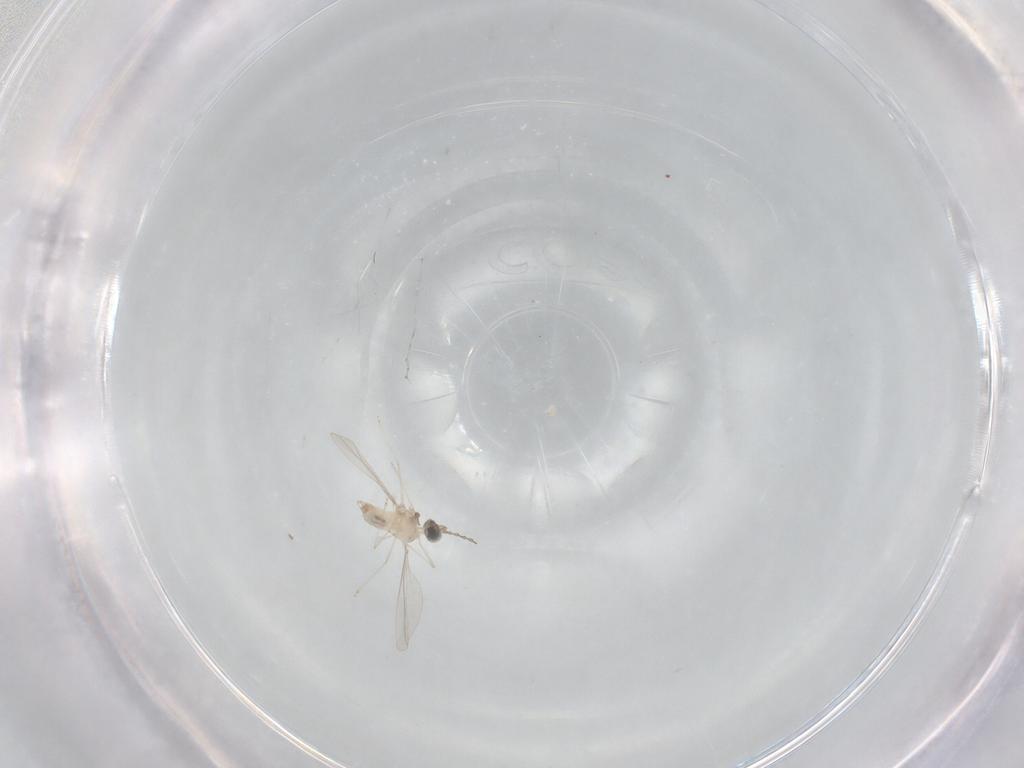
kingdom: Animalia
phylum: Arthropoda
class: Insecta
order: Diptera
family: Cecidomyiidae
